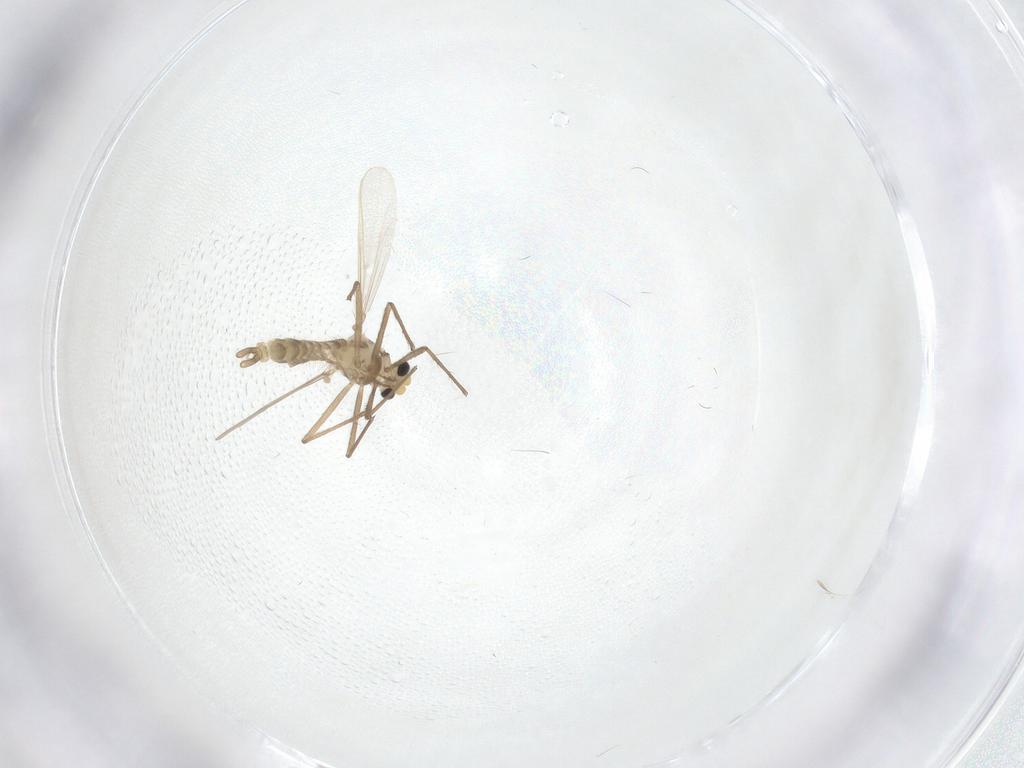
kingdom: Animalia
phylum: Arthropoda
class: Insecta
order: Diptera
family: Chironomidae
